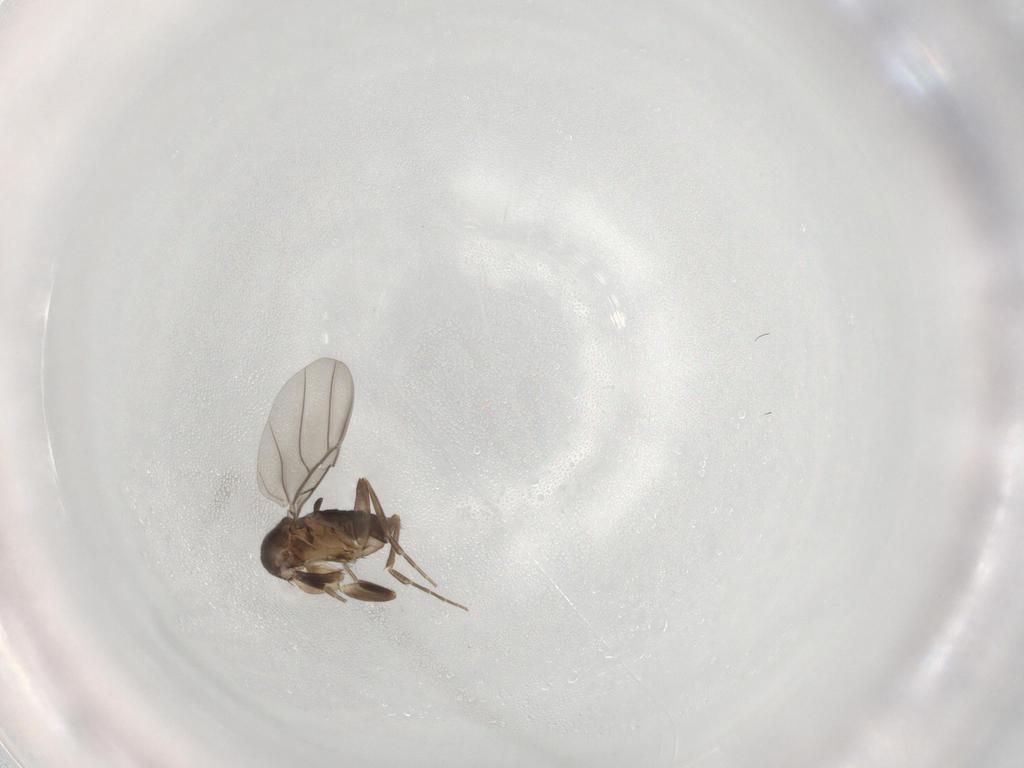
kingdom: Animalia
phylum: Arthropoda
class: Insecta
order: Diptera
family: Phoridae
